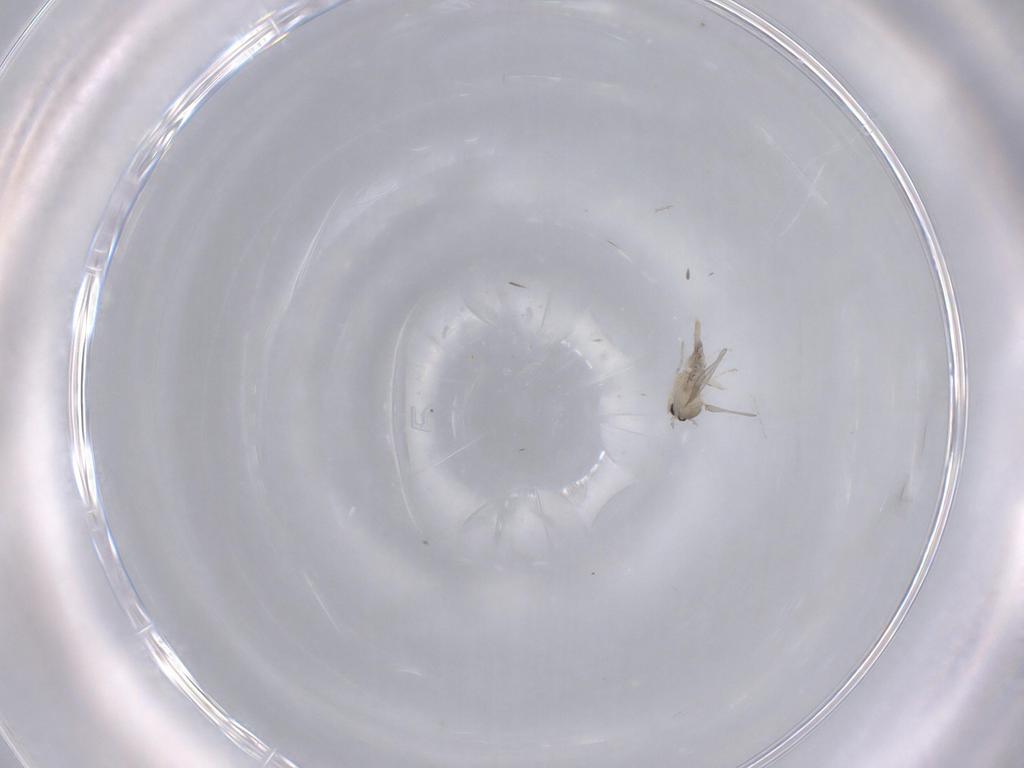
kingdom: Animalia
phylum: Arthropoda
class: Insecta
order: Diptera
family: Cecidomyiidae
